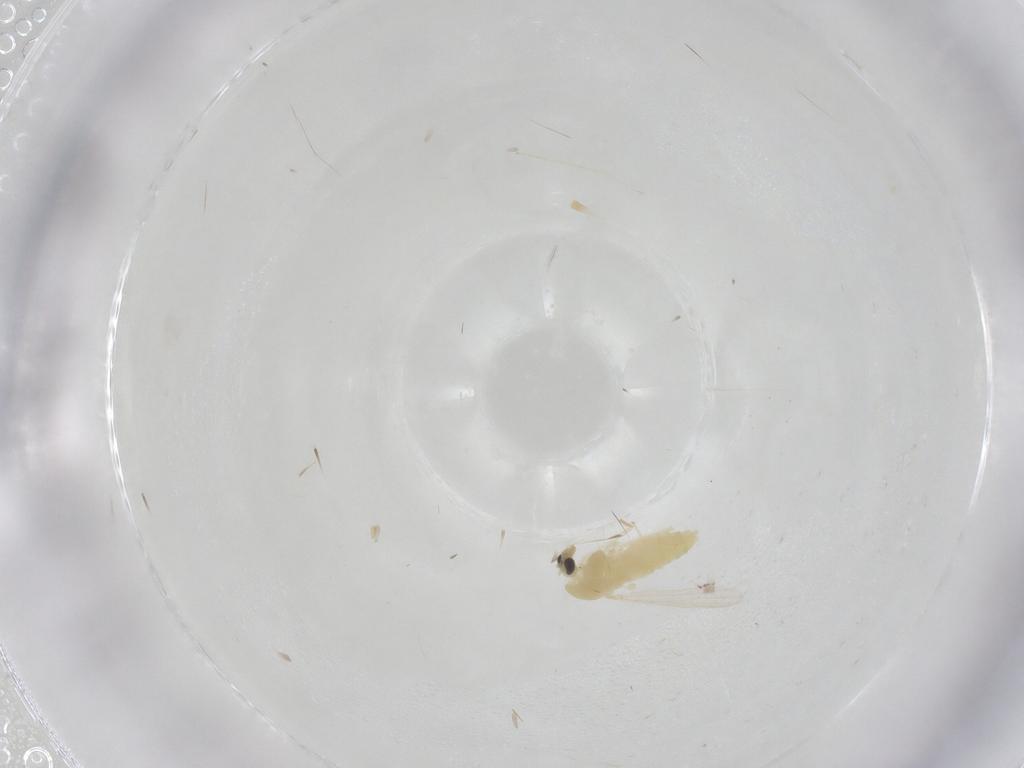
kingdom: Animalia
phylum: Arthropoda
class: Insecta
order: Diptera
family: Chironomidae
